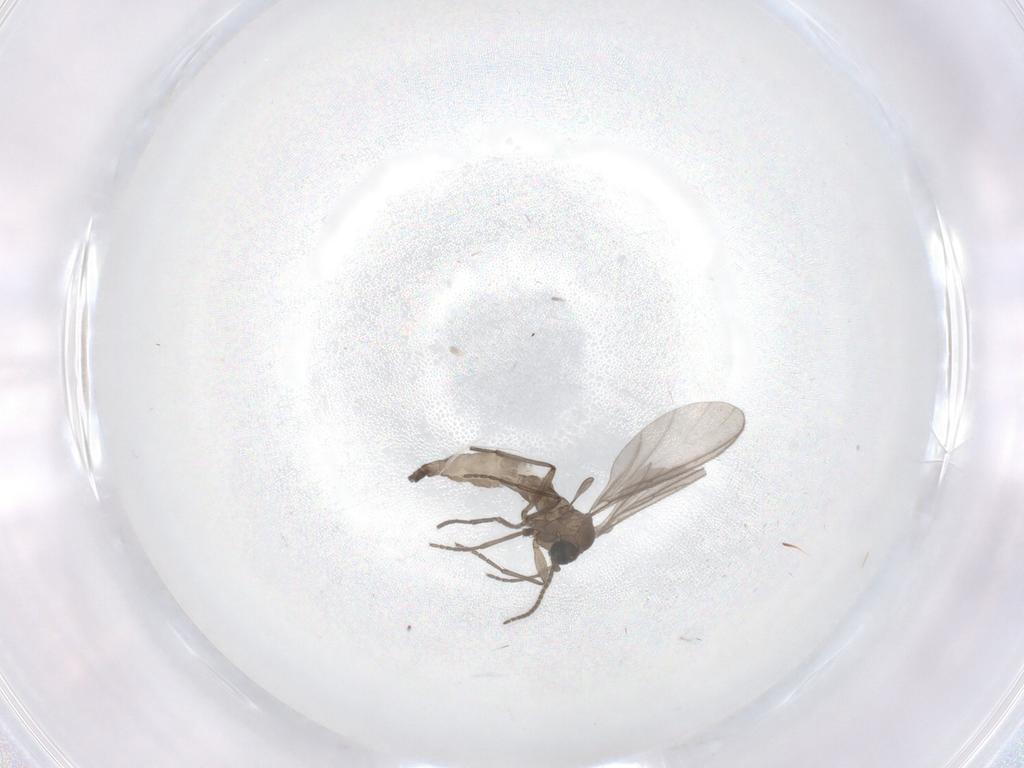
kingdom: Animalia
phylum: Arthropoda
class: Insecta
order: Diptera
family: Sciaridae
